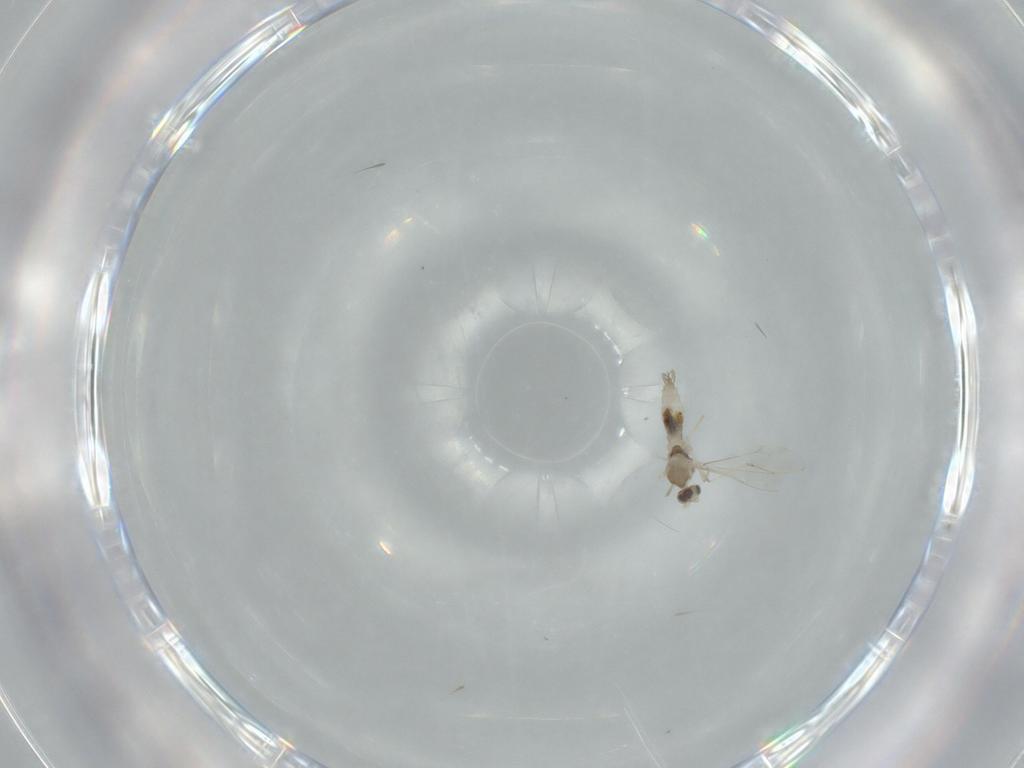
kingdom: Animalia
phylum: Arthropoda
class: Insecta
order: Diptera
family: Cecidomyiidae
